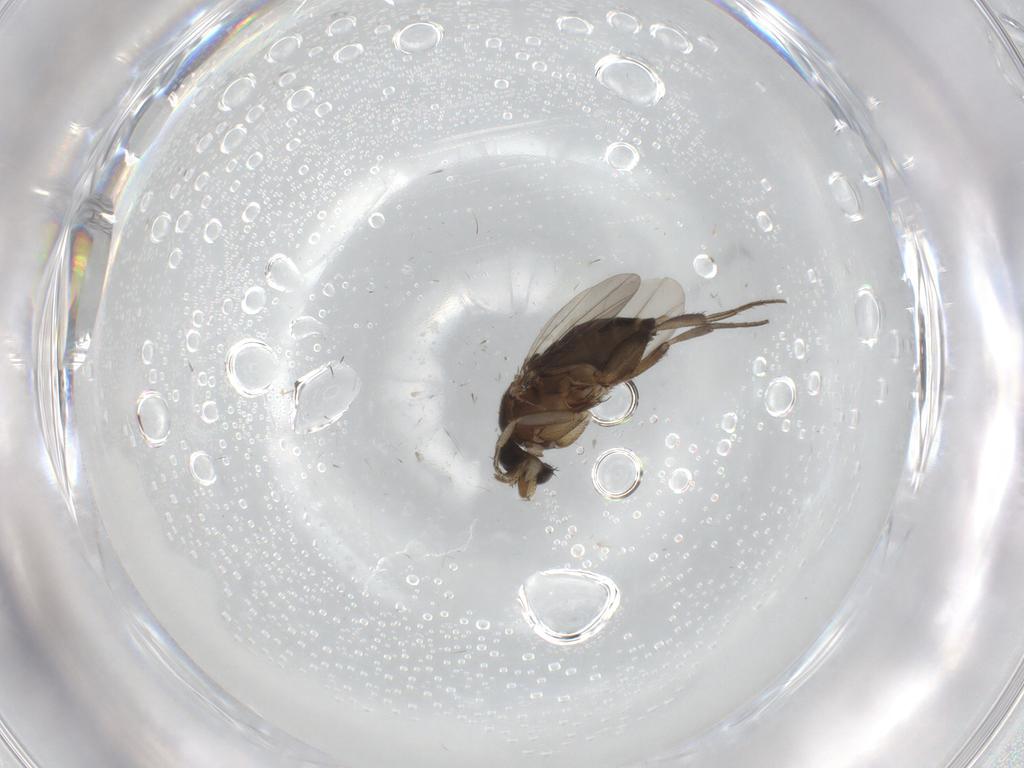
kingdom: Animalia
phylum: Arthropoda
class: Insecta
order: Diptera
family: Phoridae
